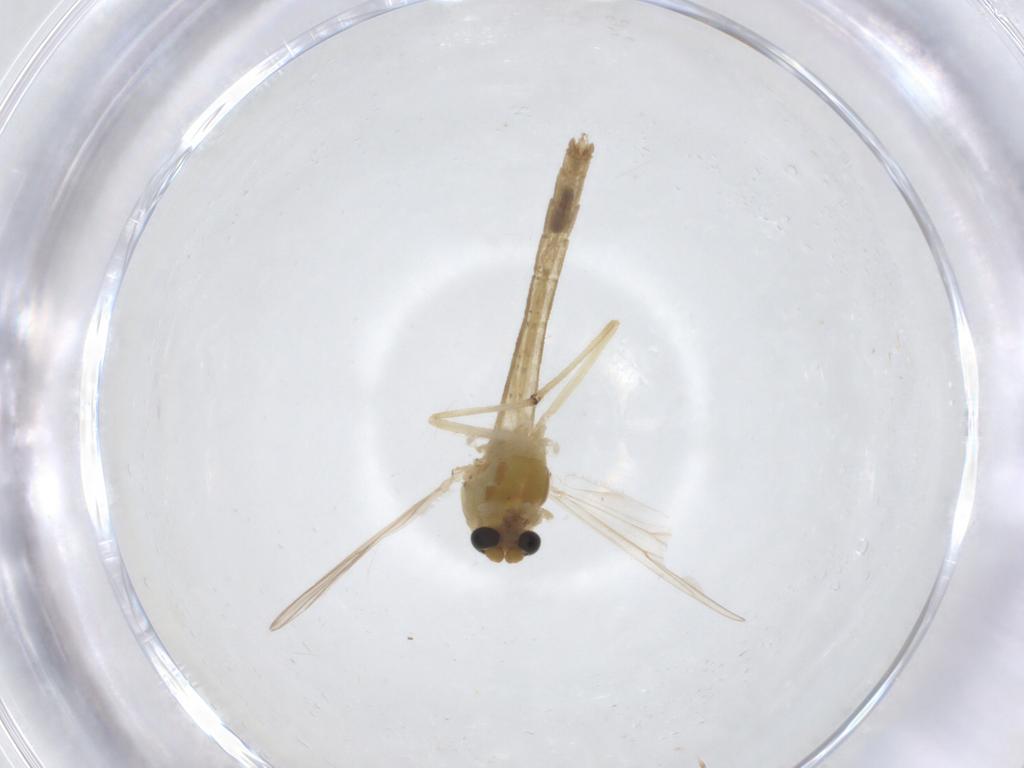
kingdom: Animalia
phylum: Arthropoda
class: Insecta
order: Diptera
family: Chironomidae
